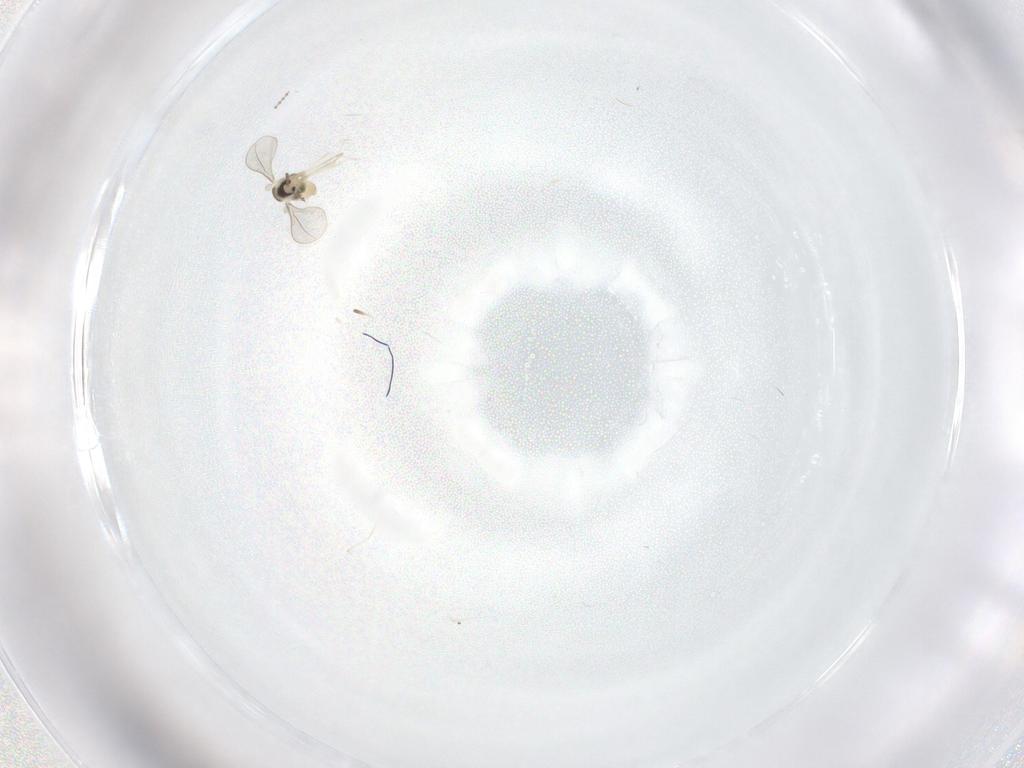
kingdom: Animalia
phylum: Arthropoda
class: Insecta
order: Diptera
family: Cecidomyiidae
